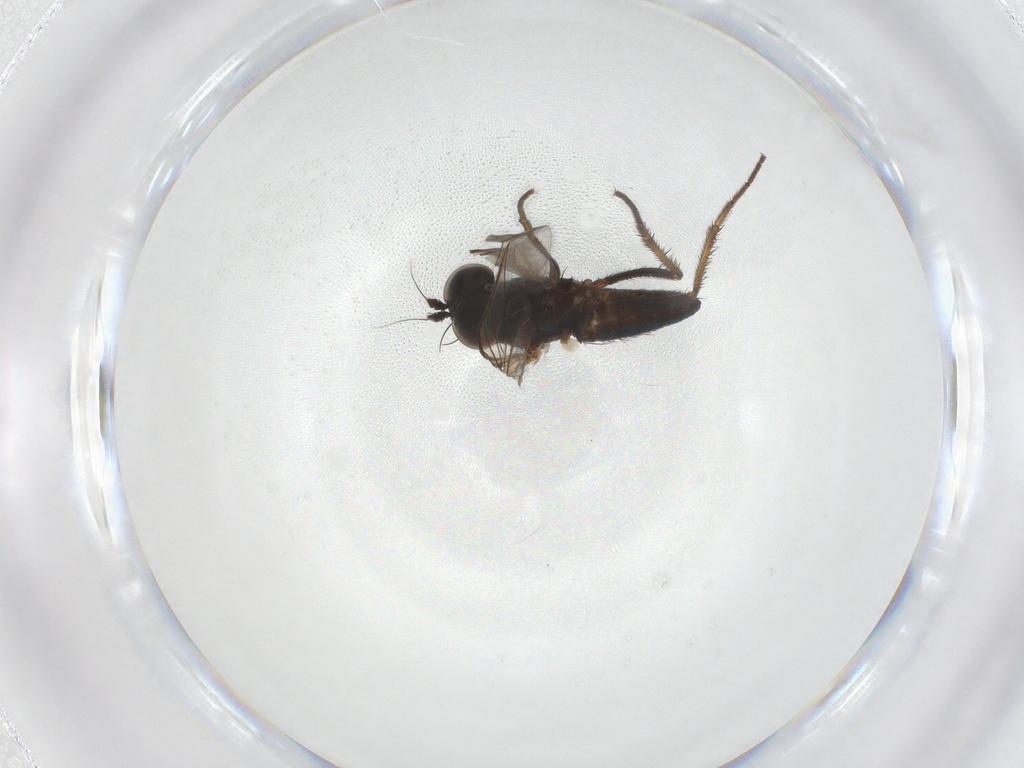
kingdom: Animalia
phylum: Arthropoda
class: Insecta
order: Diptera
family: Dolichopodidae
